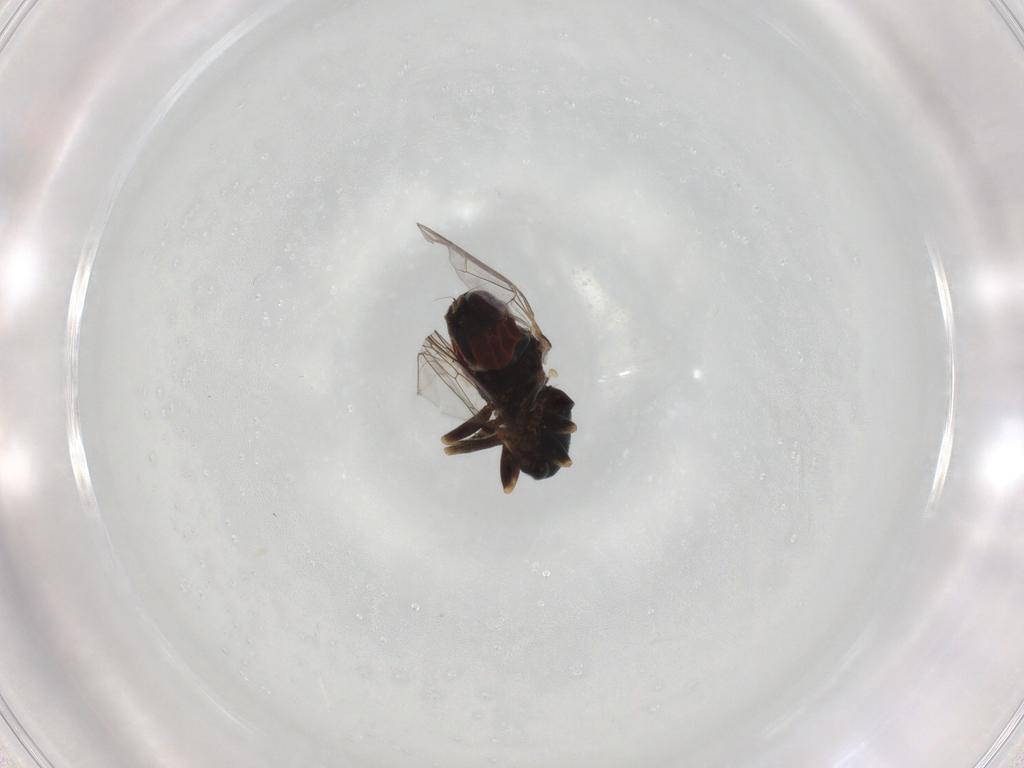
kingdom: Animalia
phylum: Arthropoda
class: Insecta
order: Diptera
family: Pipunculidae
